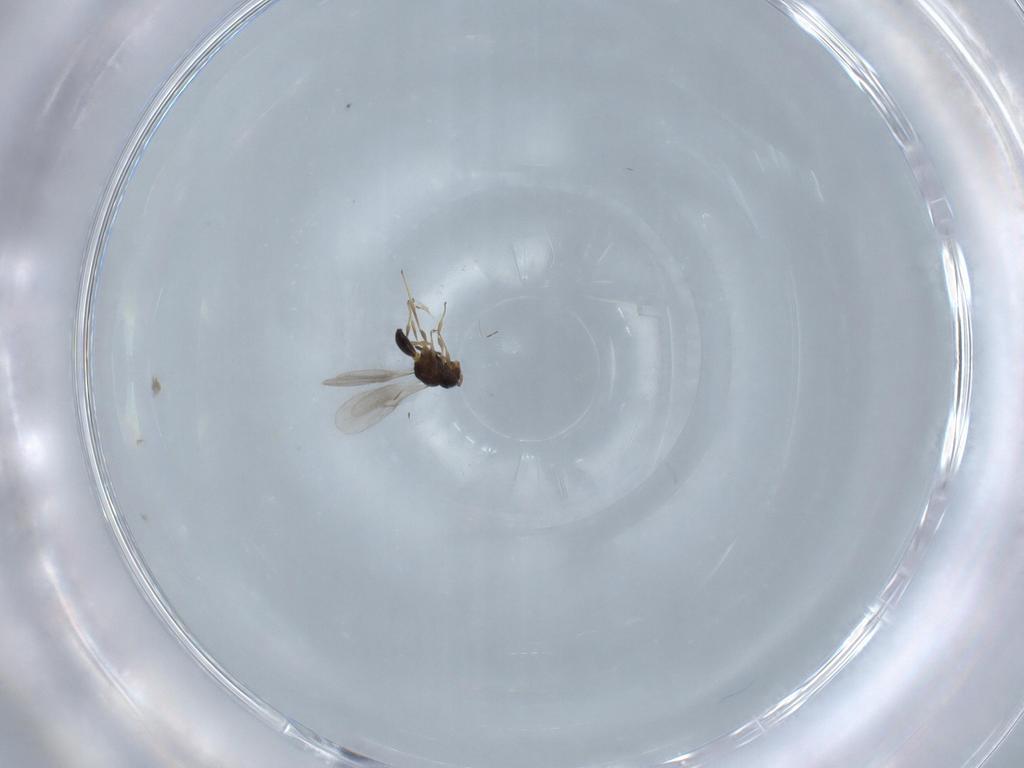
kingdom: Animalia
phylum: Arthropoda
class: Insecta
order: Hymenoptera
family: Scelionidae
